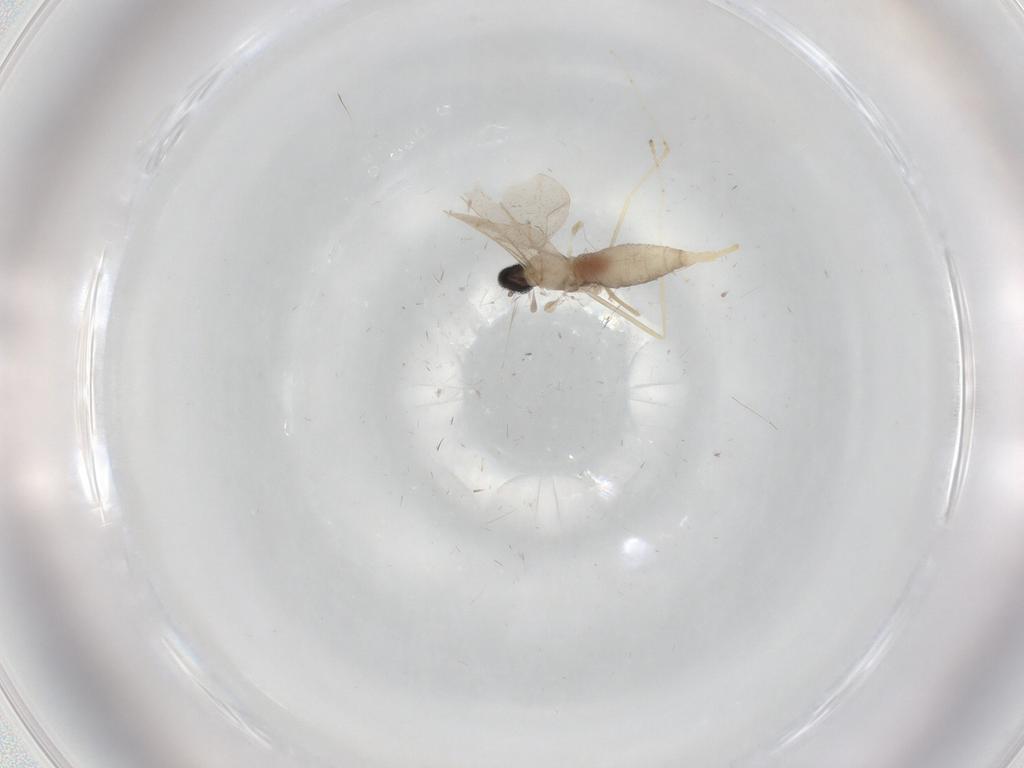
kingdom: Animalia
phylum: Arthropoda
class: Insecta
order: Diptera
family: Cecidomyiidae
